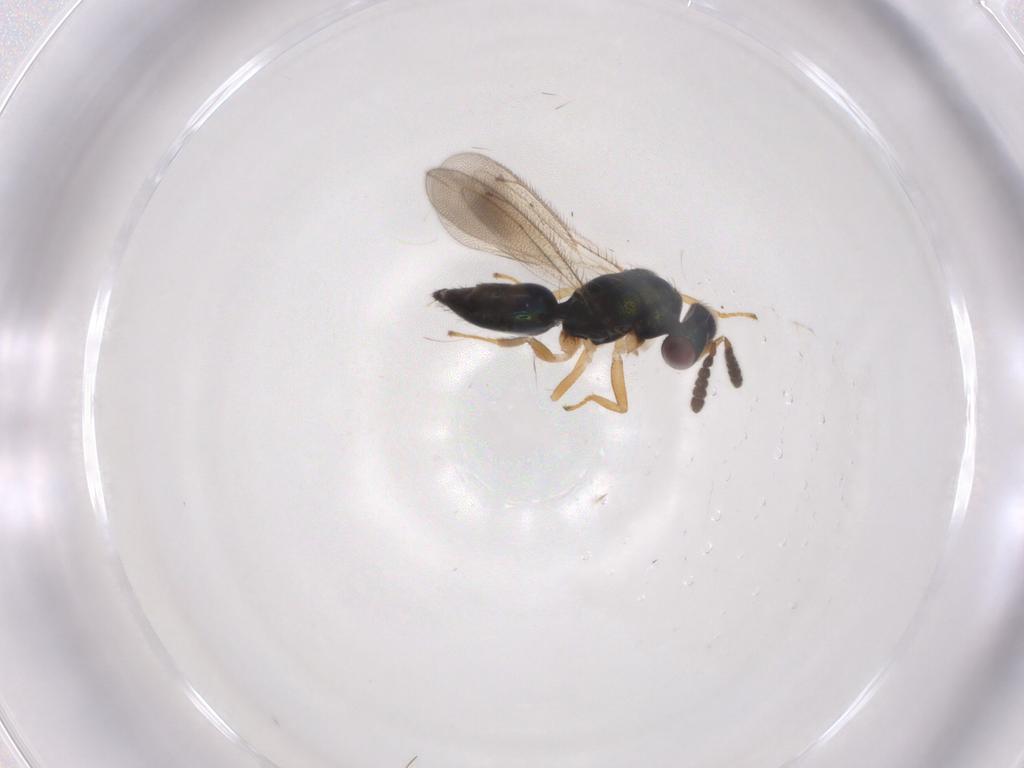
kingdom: Animalia
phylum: Arthropoda
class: Insecta
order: Hymenoptera
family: Eulophidae
